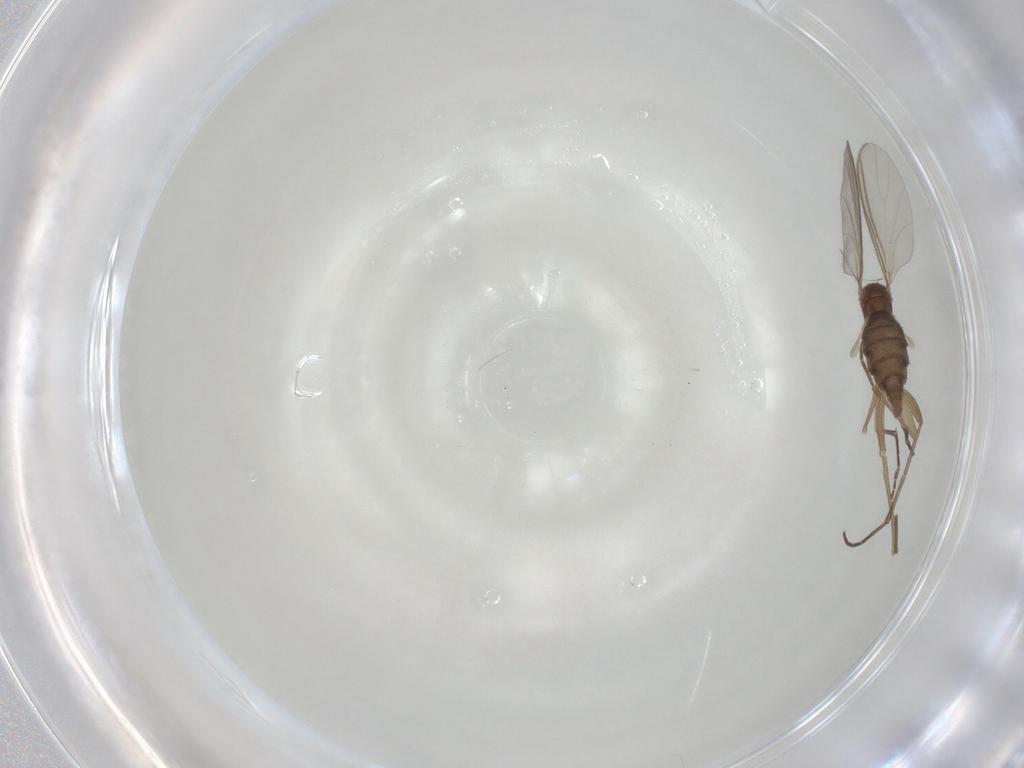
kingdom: Animalia
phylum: Arthropoda
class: Insecta
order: Diptera
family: Sciaridae
